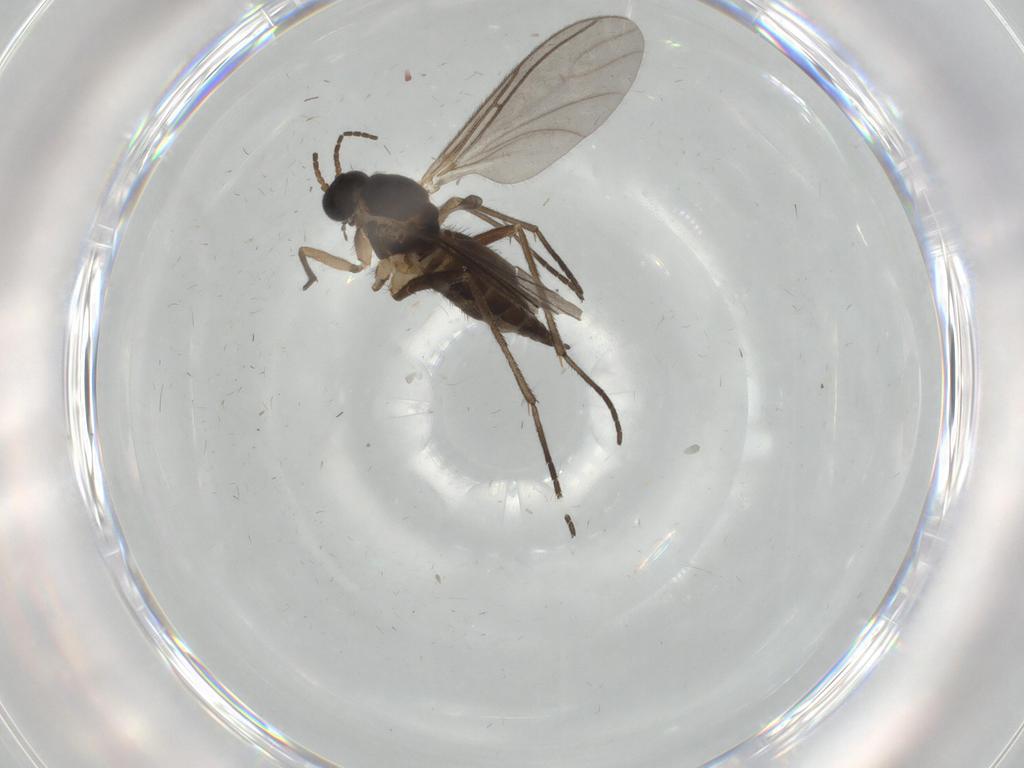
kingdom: Animalia
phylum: Arthropoda
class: Insecta
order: Diptera
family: Sciaridae
